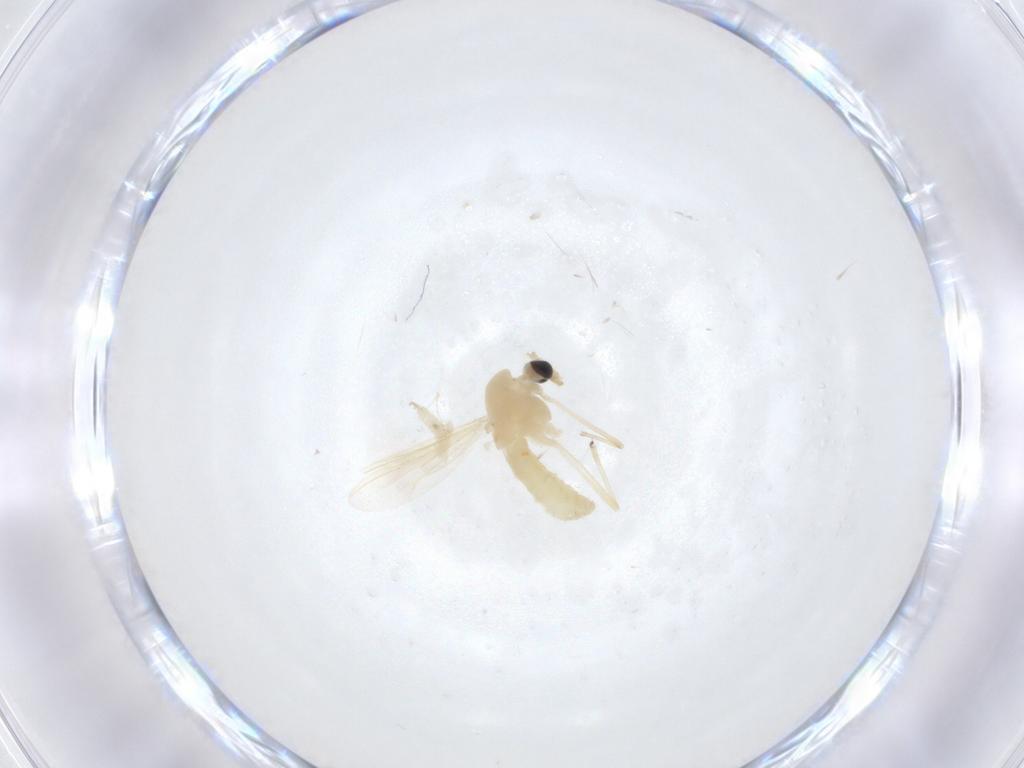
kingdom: Animalia
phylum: Arthropoda
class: Insecta
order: Diptera
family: Chironomidae
